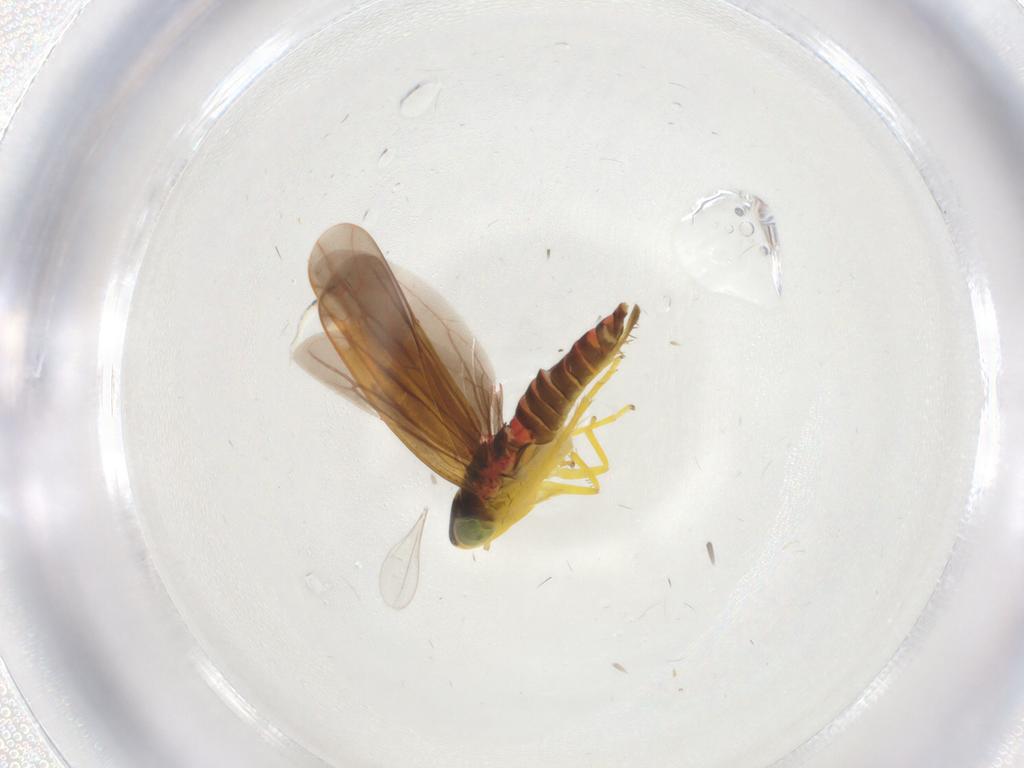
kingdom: Animalia
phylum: Arthropoda
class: Insecta
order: Hemiptera
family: Cicadellidae
